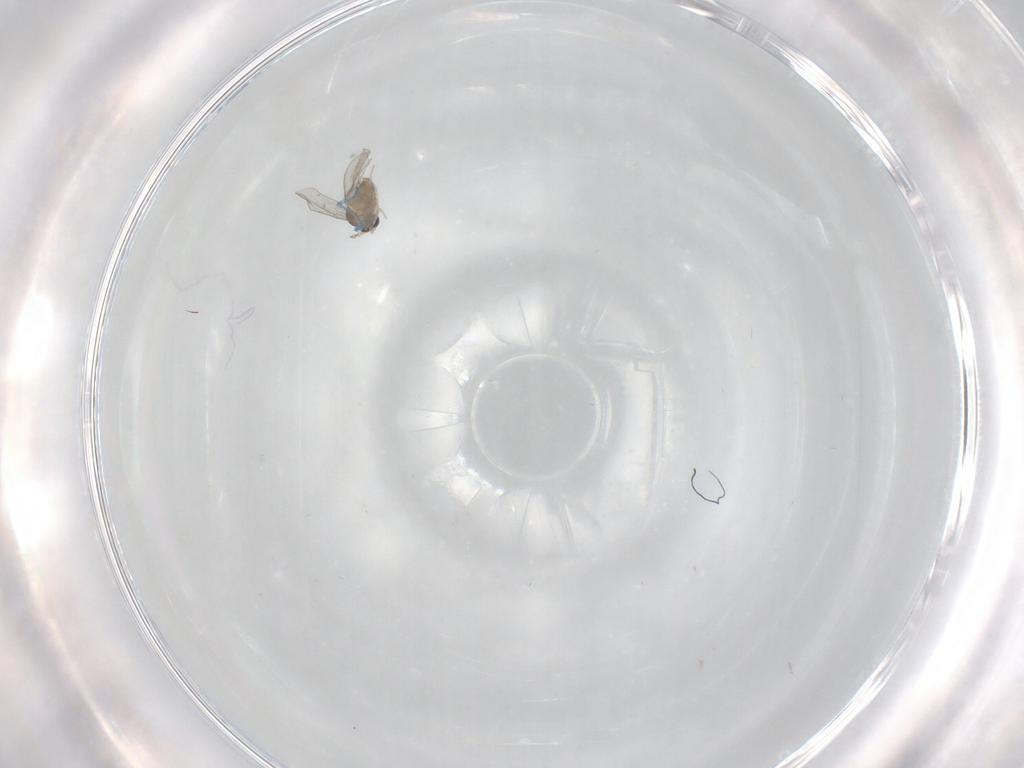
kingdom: Animalia
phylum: Arthropoda
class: Insecta
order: Diptera
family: Cecidomyiidae
